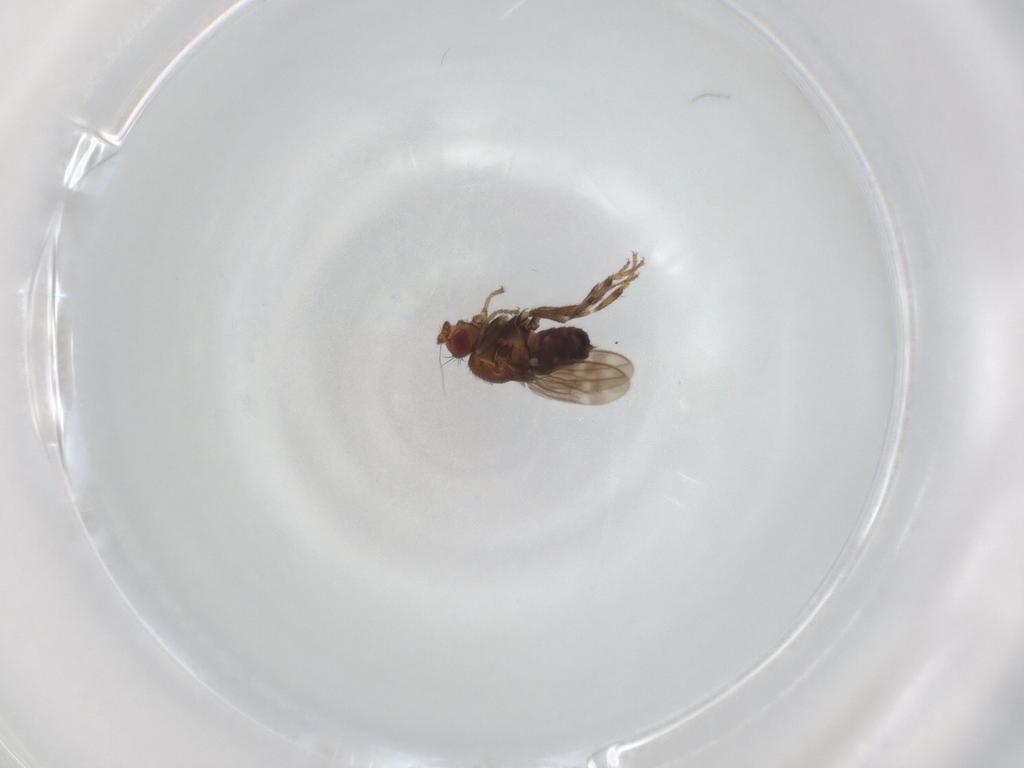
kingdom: Animalia
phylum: Arthropoda
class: Insecta
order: Diptera
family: Sphaeroceridae
